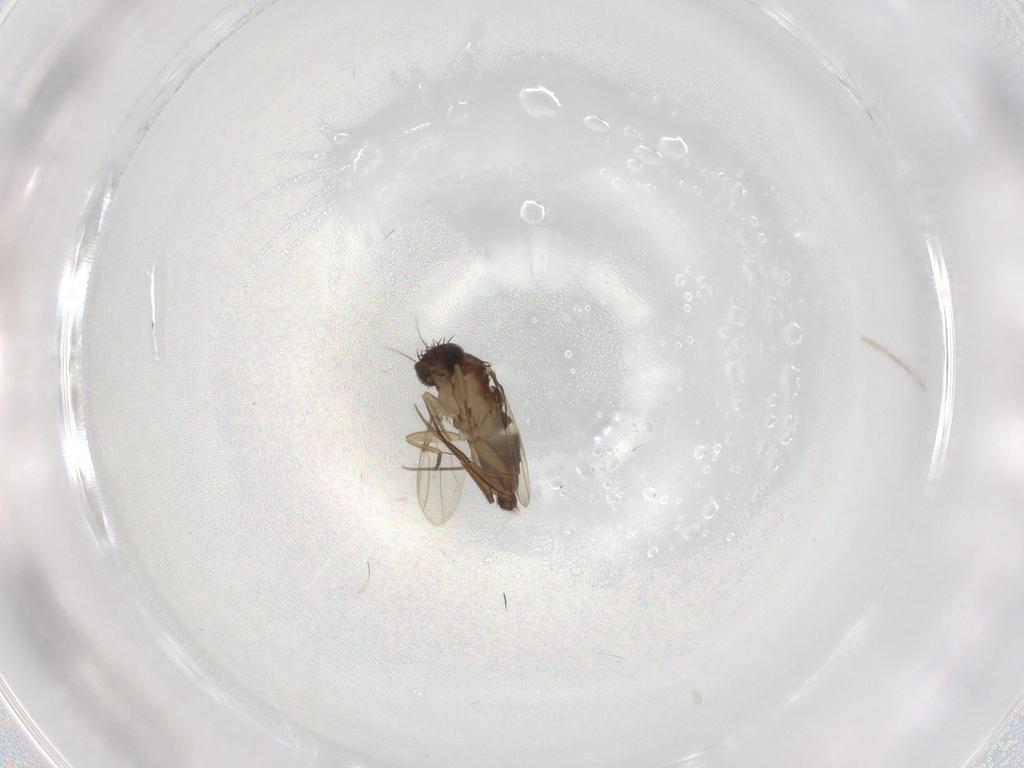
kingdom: Animalia
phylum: Arthropoda
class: Insecta
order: Diptera
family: Phoridae
